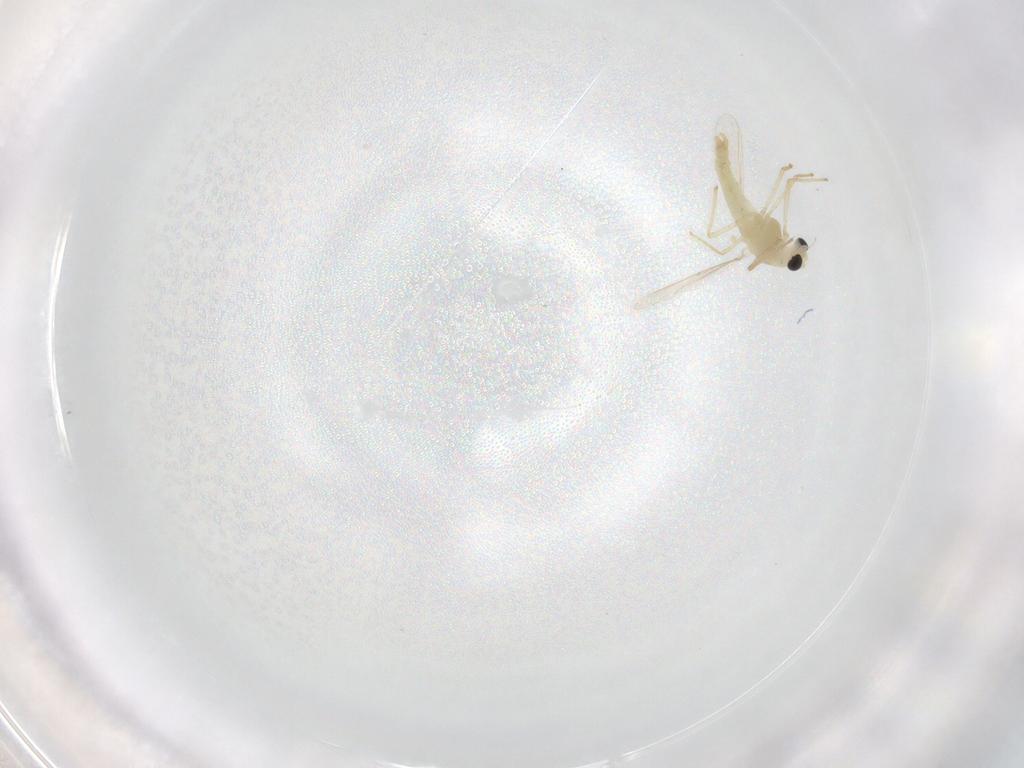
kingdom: Animalia
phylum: Arthropoda
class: Insecta
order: Diptera
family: Chironomidae
